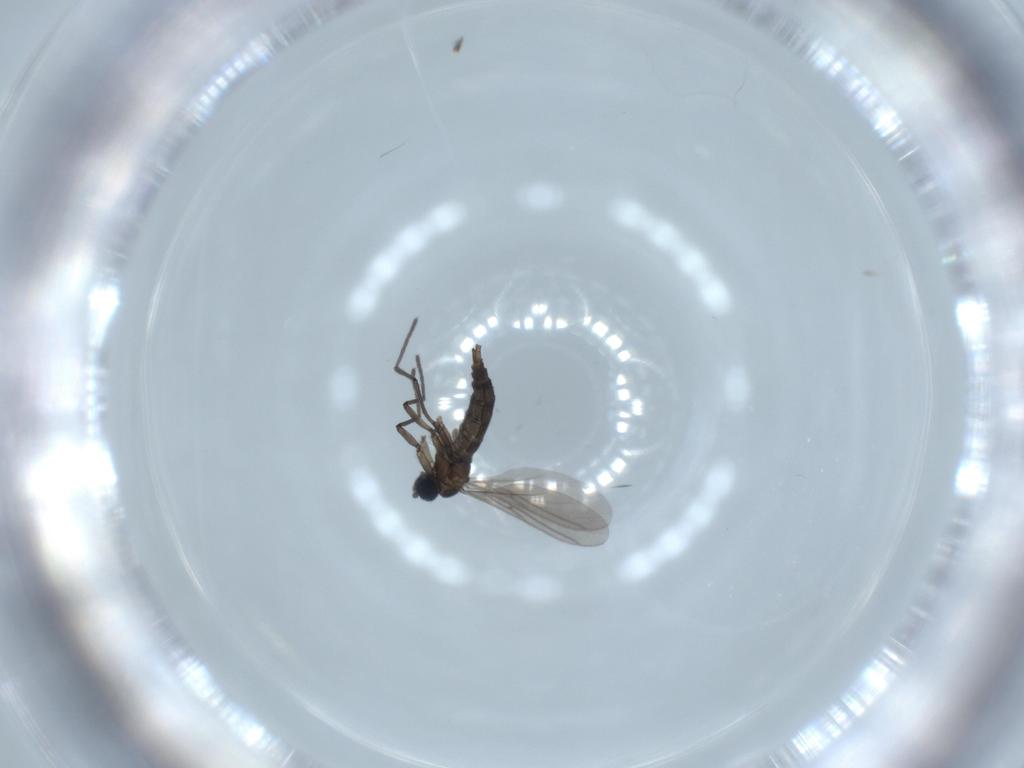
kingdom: Animalia
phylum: Arthropoda
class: Insecta
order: Diptera
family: Sciaridae
